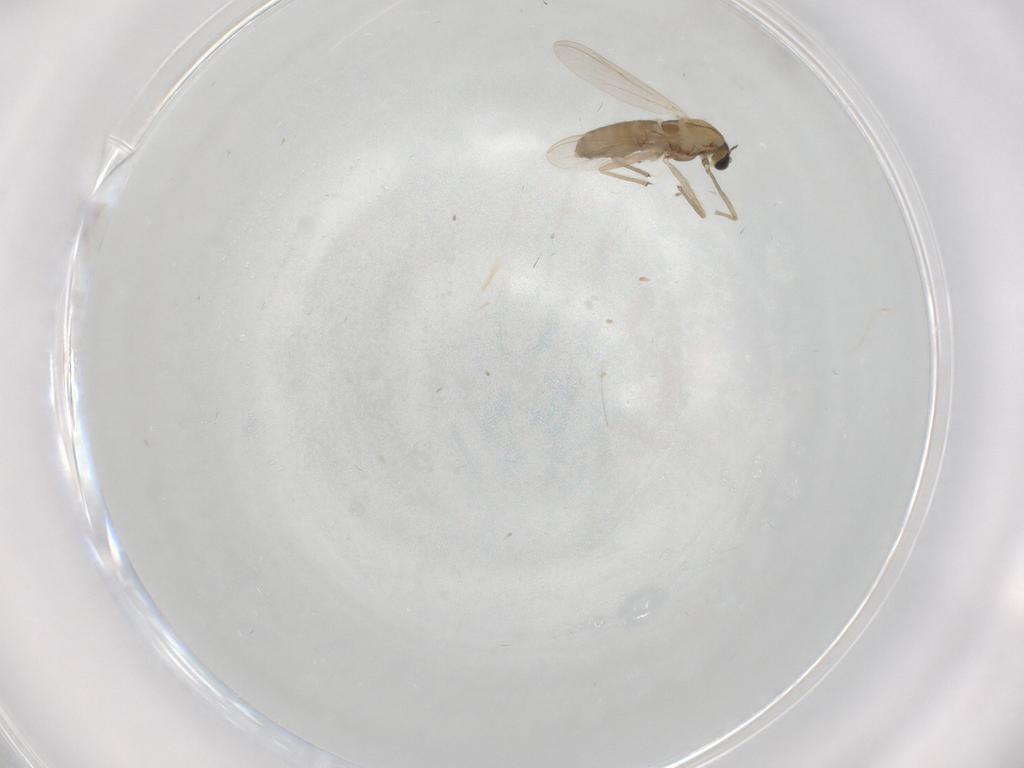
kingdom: Animalia
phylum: Arthropoda
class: Insecta
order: Diptera
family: Chironomidae
